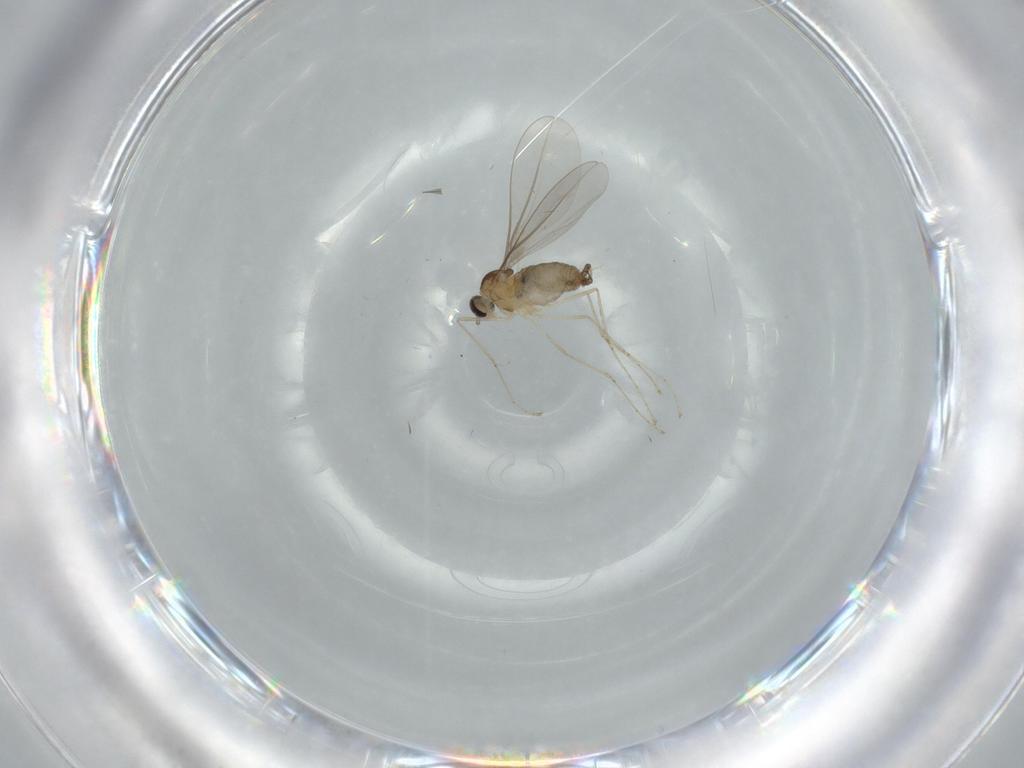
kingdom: Animalia
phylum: Arthropoda
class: Insecta
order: Diptera
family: Cecidomyiidae
